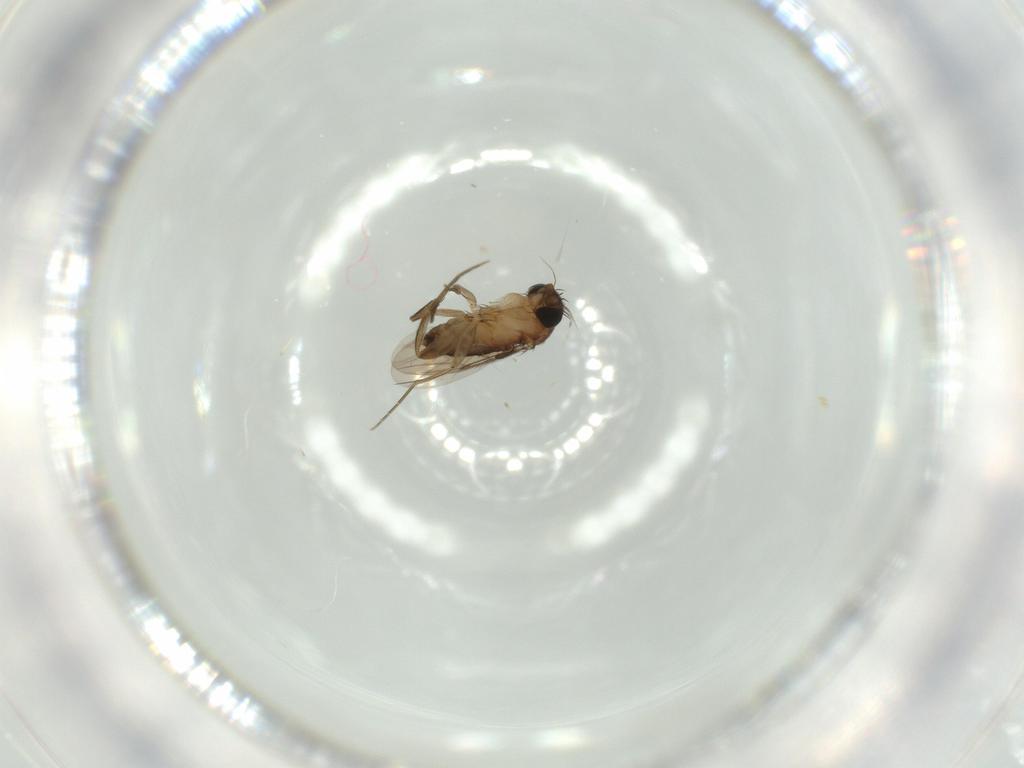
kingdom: Animalia
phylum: Arthropoda
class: Insecta
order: Diptera
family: Phoridae
